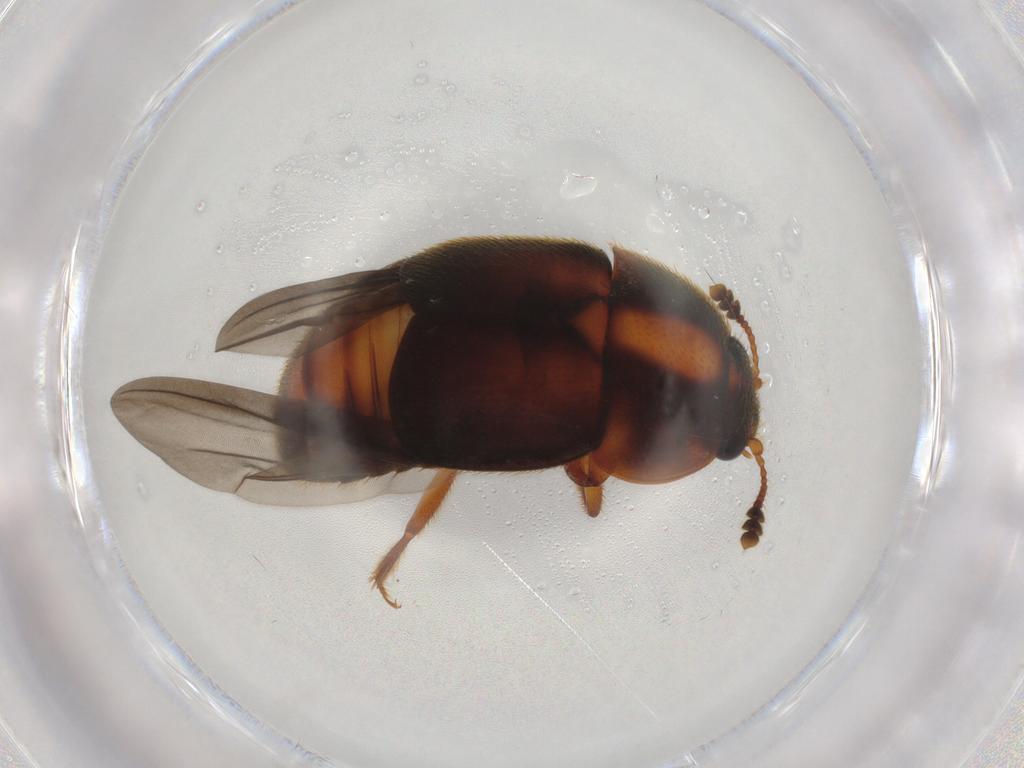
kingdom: Animalia
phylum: Arthropoda
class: Insecta
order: Coleoptera
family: Nitidulidae
